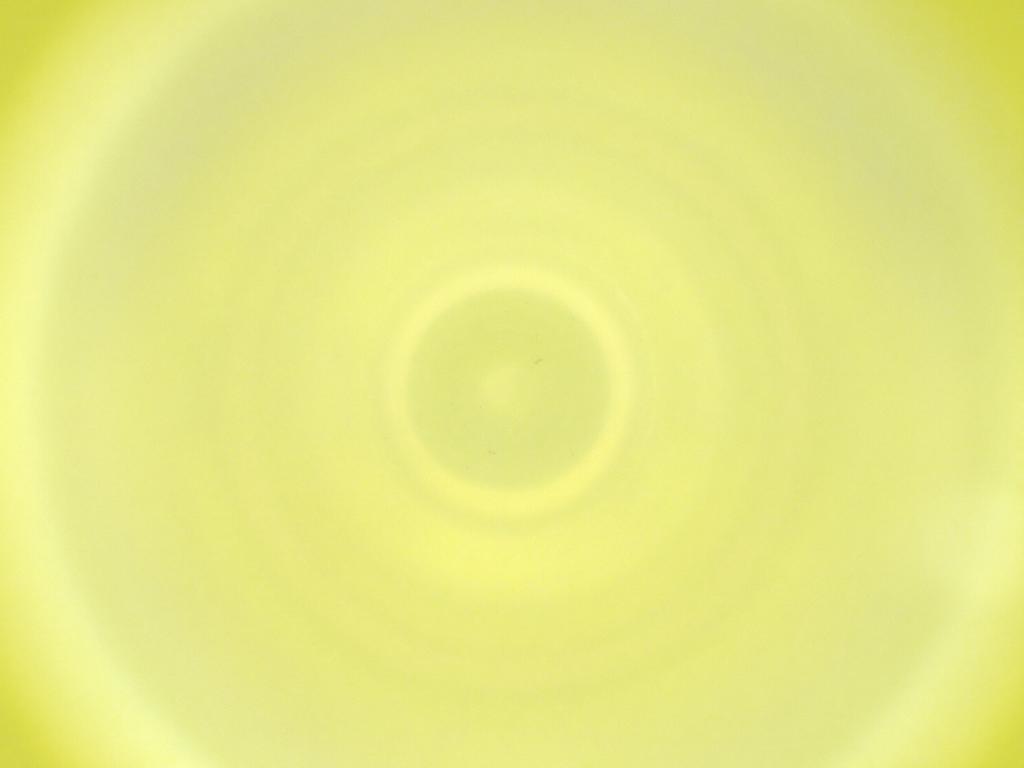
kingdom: Animalia
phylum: Arthropoda
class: Insecta
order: Diptera
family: Cecidomyiidae
